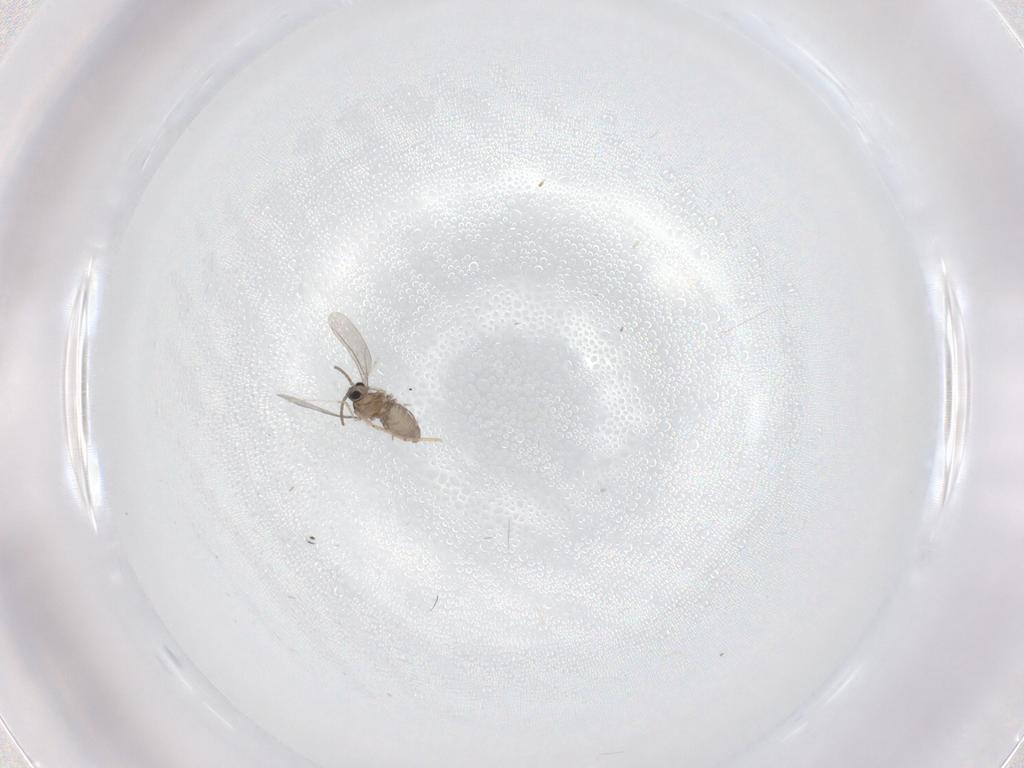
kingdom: Animalia
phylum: Arthropoda
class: Insecta
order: Diptera
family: Cecidomyiidae
